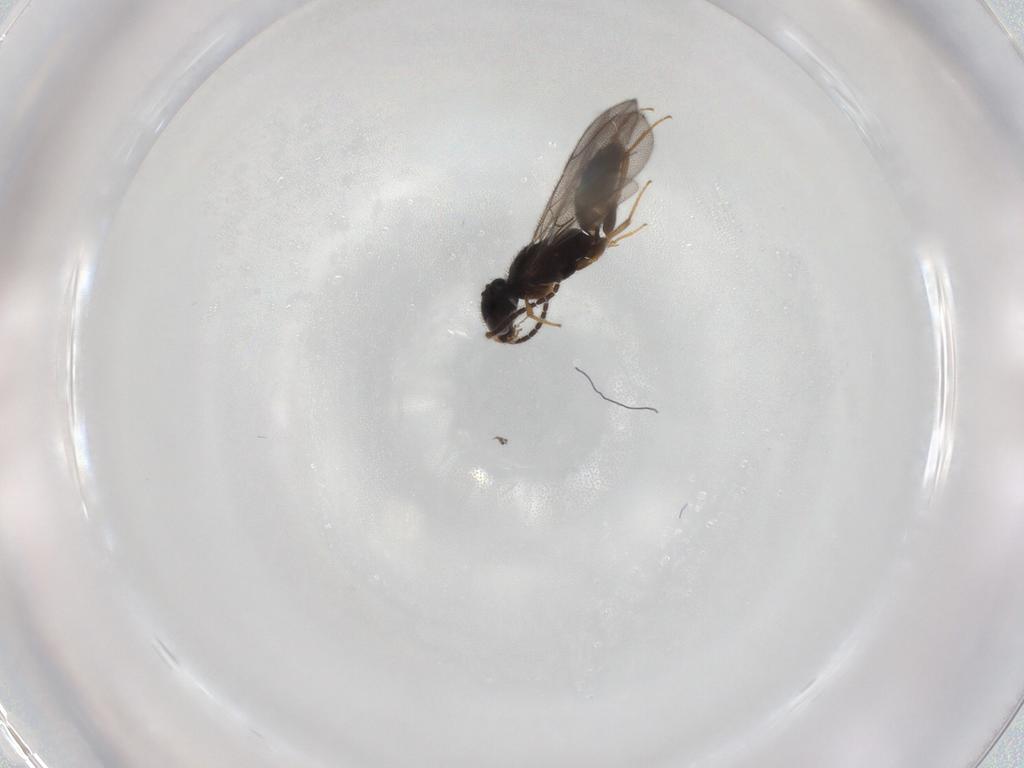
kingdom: Animalia
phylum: Arthropoda
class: Insecta
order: Hymenoptera
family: Bethylidae
